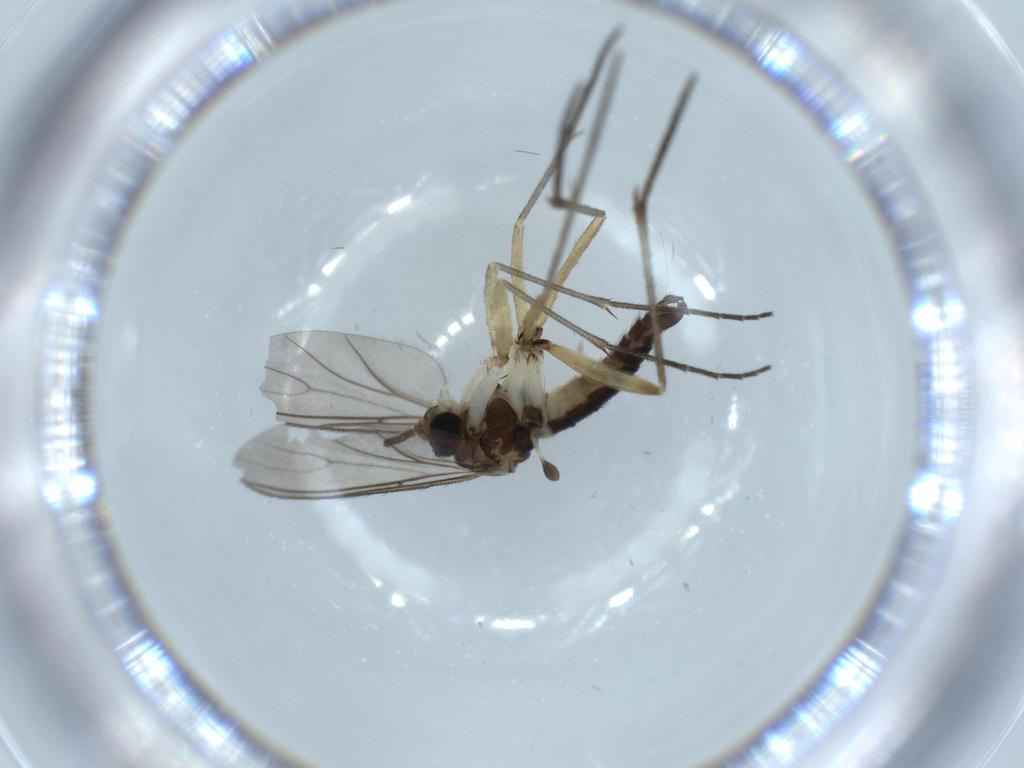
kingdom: Animalia
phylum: Arthropoda
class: Insecta
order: Diptera
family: Sciaridae
